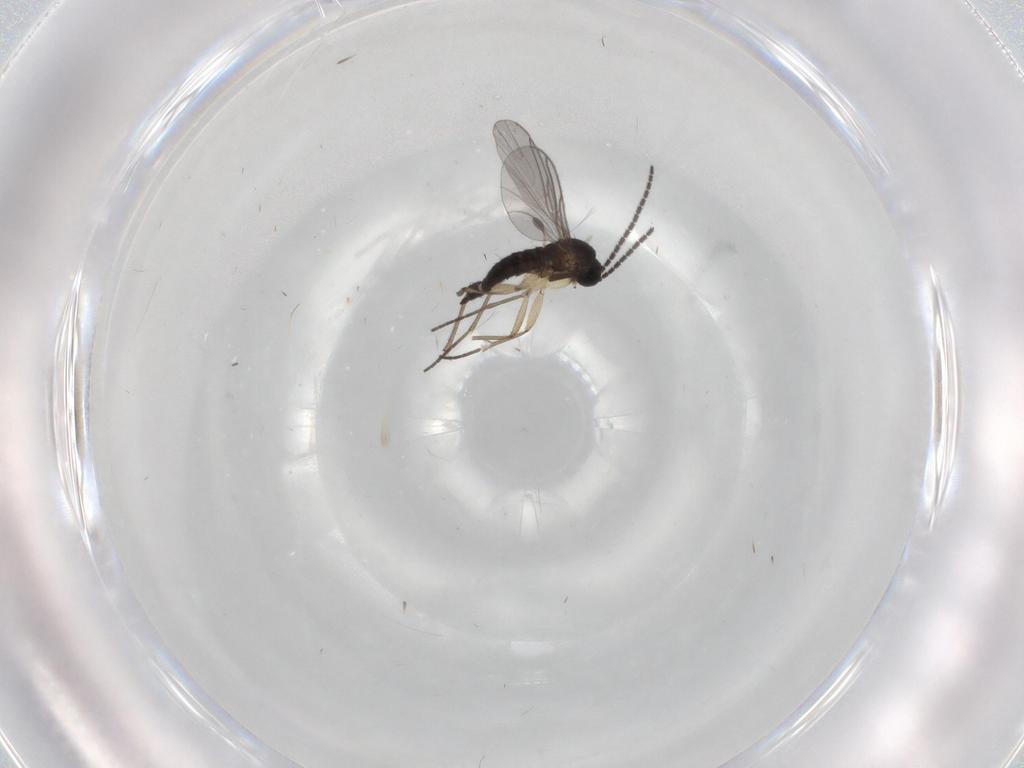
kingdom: Animalia
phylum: Arthropoda
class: Insecta
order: Diptera
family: Sciaridae
